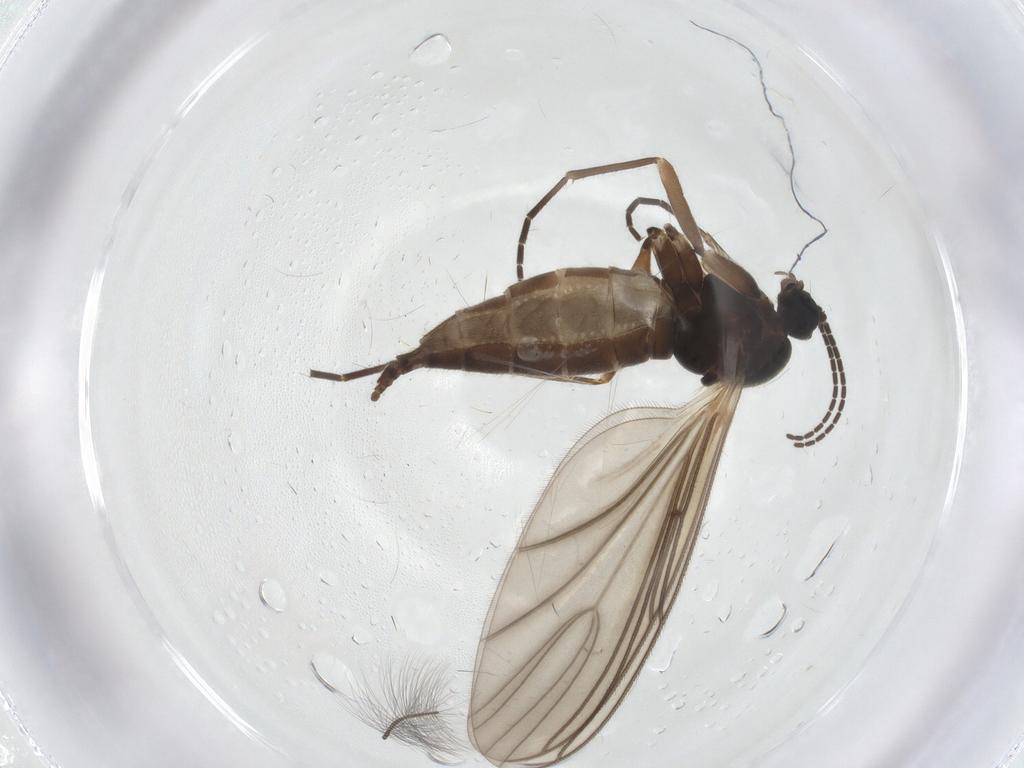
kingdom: Animalia
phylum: Arthropoda
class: Insecta
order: Diptera
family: Sciaridae
